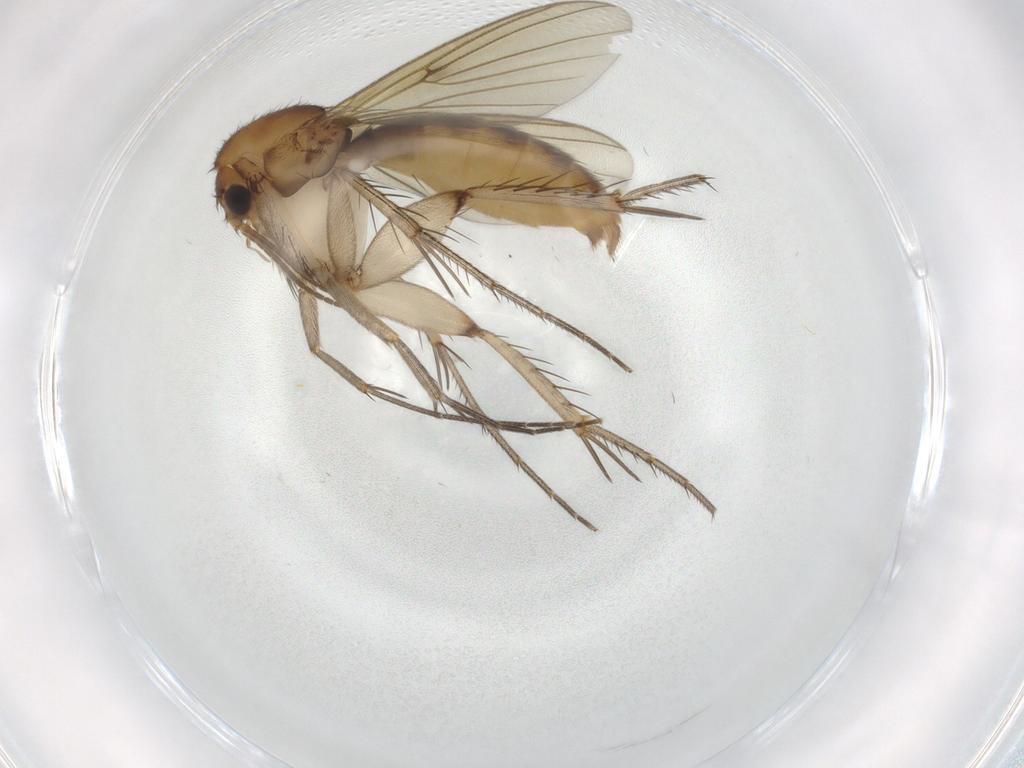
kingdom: Animalia
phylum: Arthropoda
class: Insecta
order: Diptera
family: Mycetophilidae
